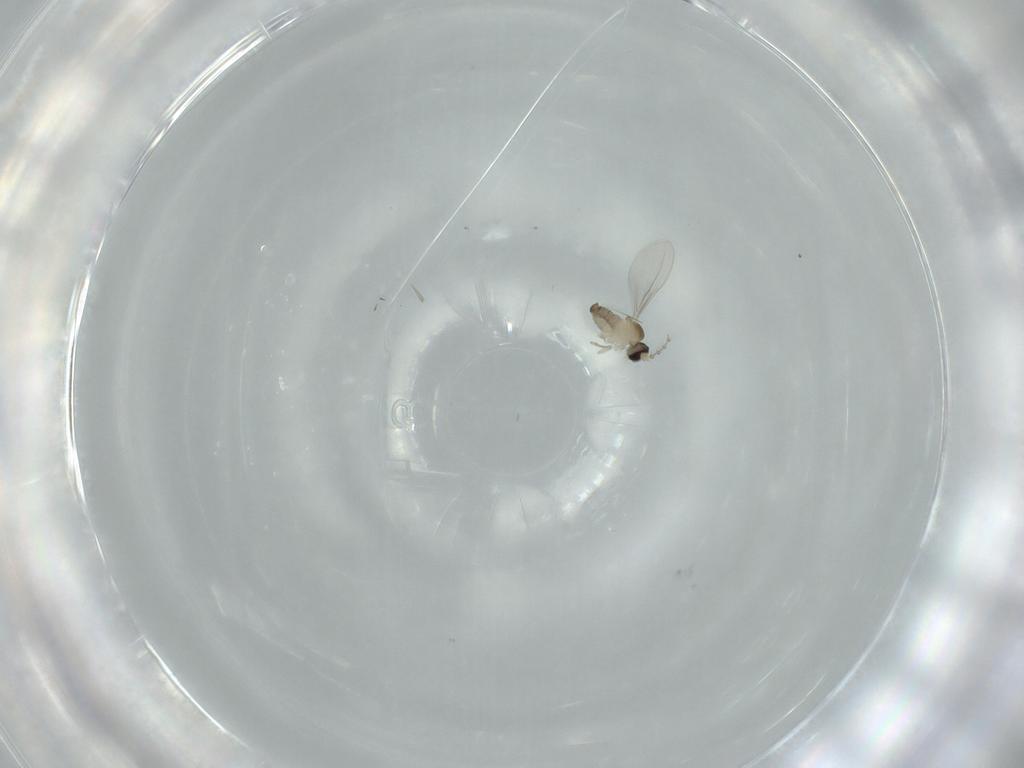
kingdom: Animalia
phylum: Arthropoda
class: Insecta
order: Diptera
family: Cecidomyiidae
